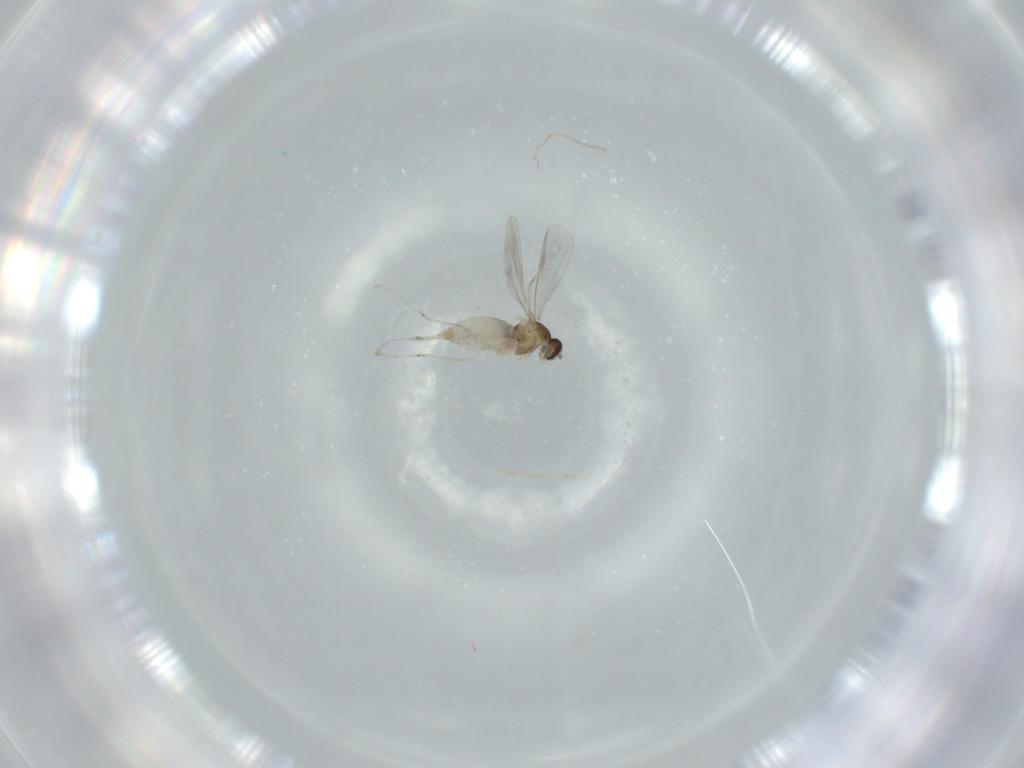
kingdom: Animalia
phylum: Arthropoda
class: Insecta
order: Diptera
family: Cecidomyiidae
